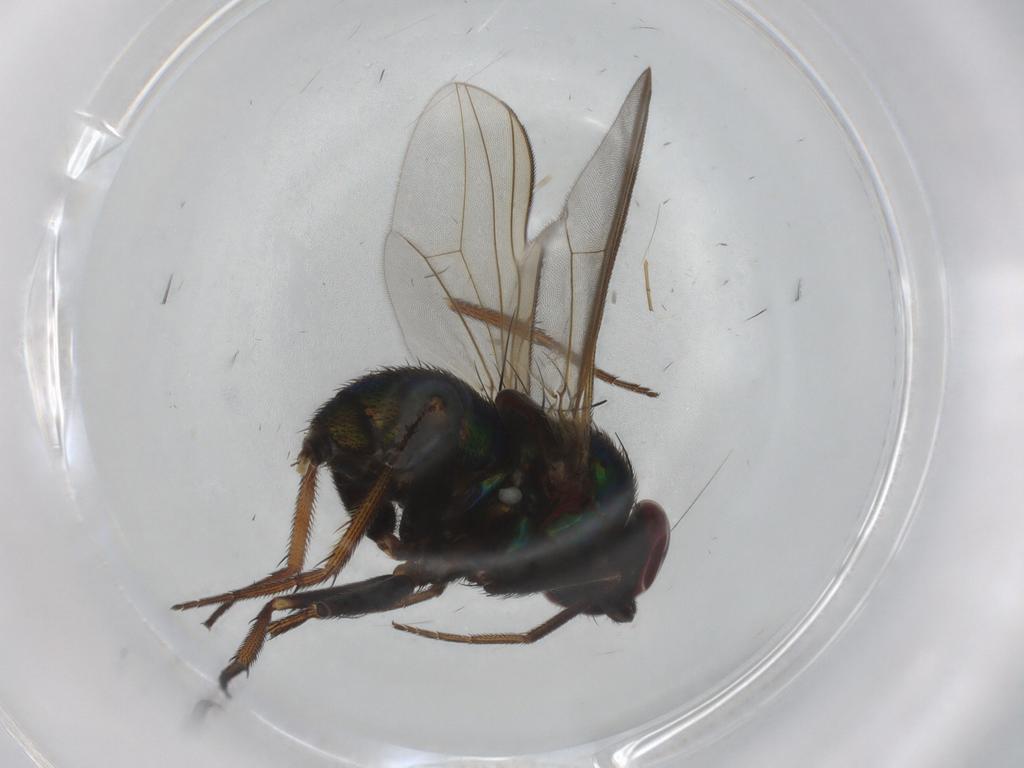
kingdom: Animalia
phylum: Arthropoda
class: Insecta
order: Diptera
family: Dolichopodidae
